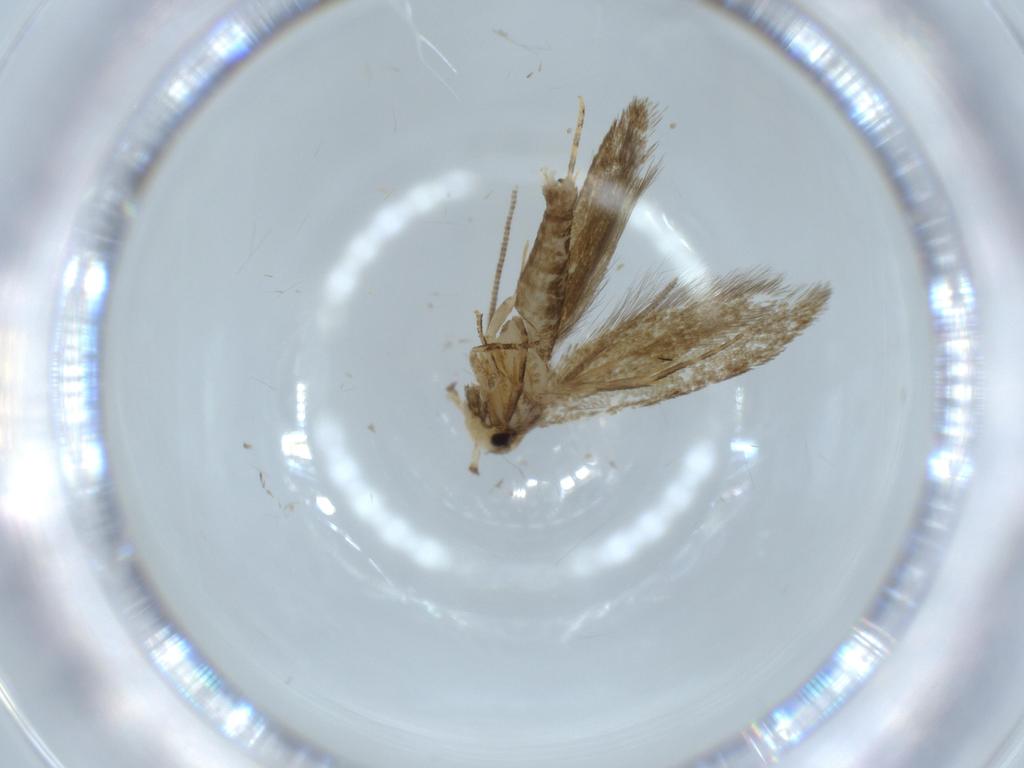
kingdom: Animalia
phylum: Arthropoda
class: Insecta
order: Lepidoptera
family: Tineidae
